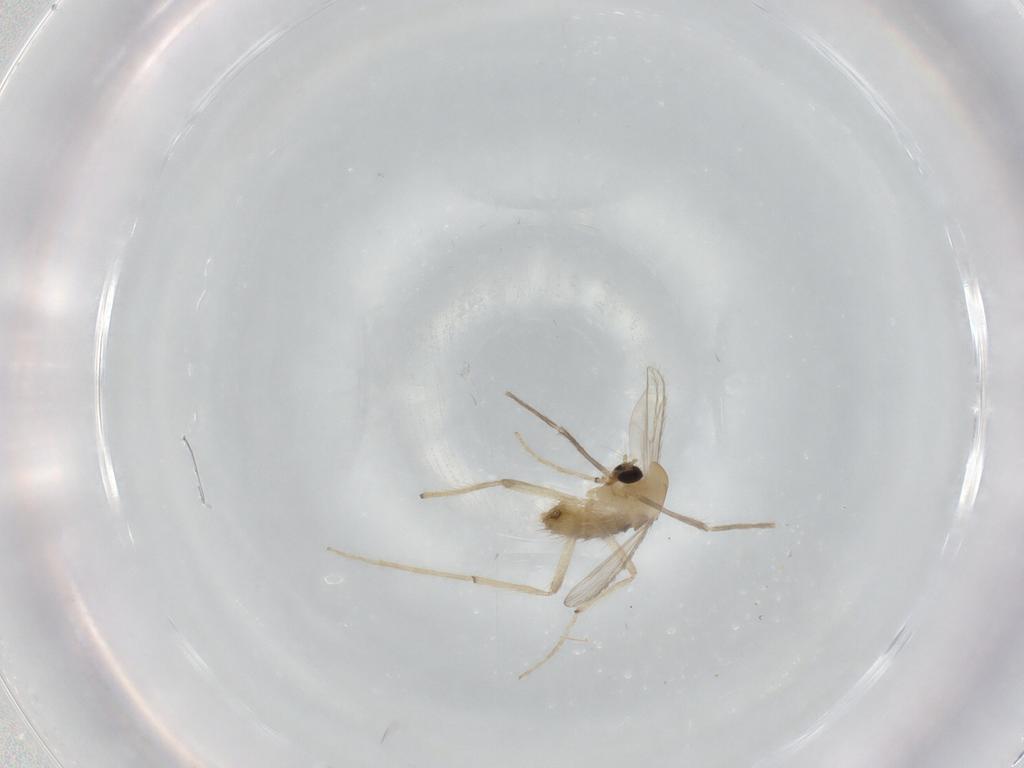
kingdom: Animalia
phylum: Arthropoda
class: Insecta
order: Diptera
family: Chironomidae
